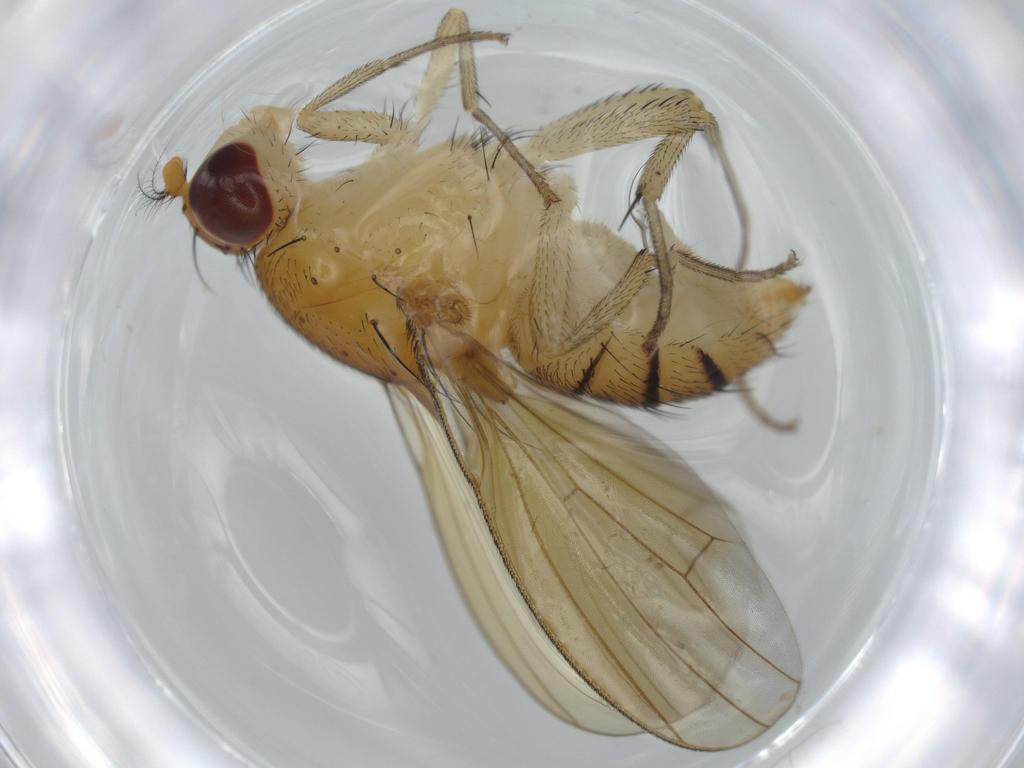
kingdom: Animalia
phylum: Arthropoda
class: Insecta
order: Diptera
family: Dolichopodidae
